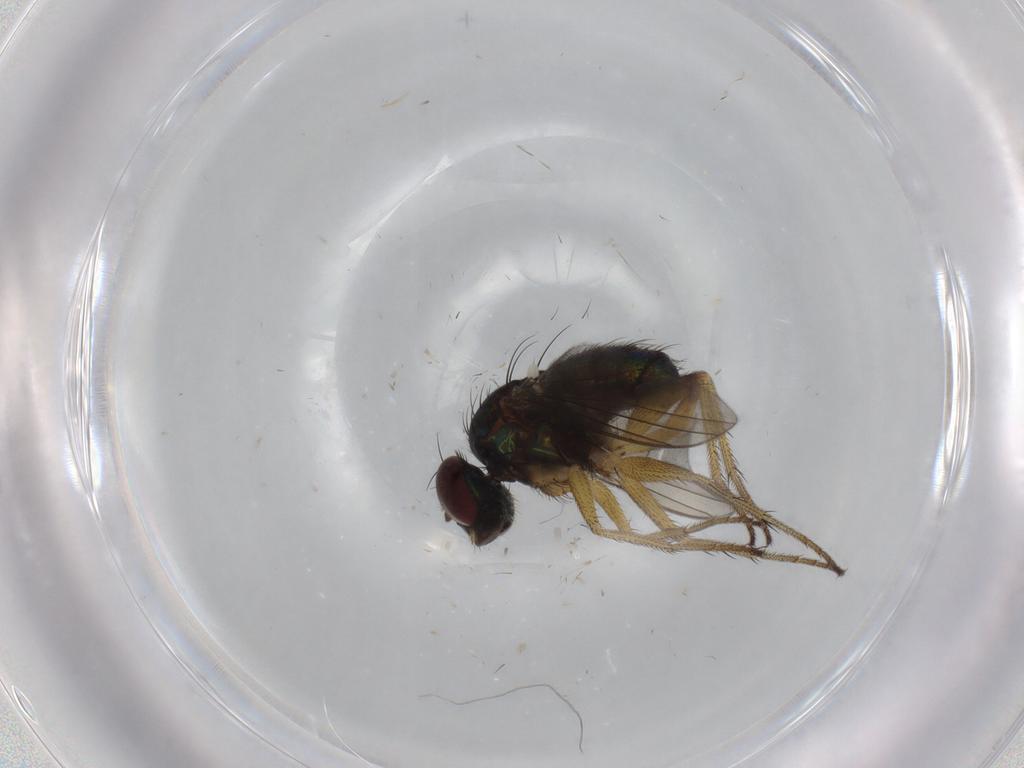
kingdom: Animalia
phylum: Arthropoda
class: Insecta
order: Diptera
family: Dolichopodidae
